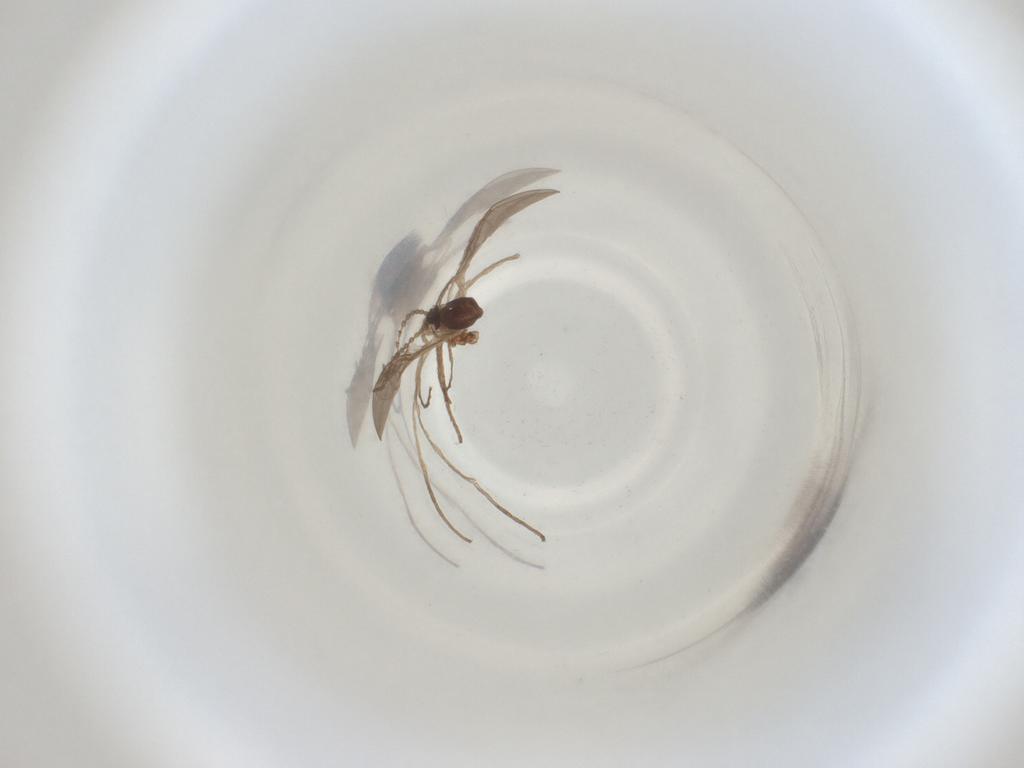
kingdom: Animalia
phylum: Arthropoda
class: Insecta
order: Diptera
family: Cecidomyiidae
